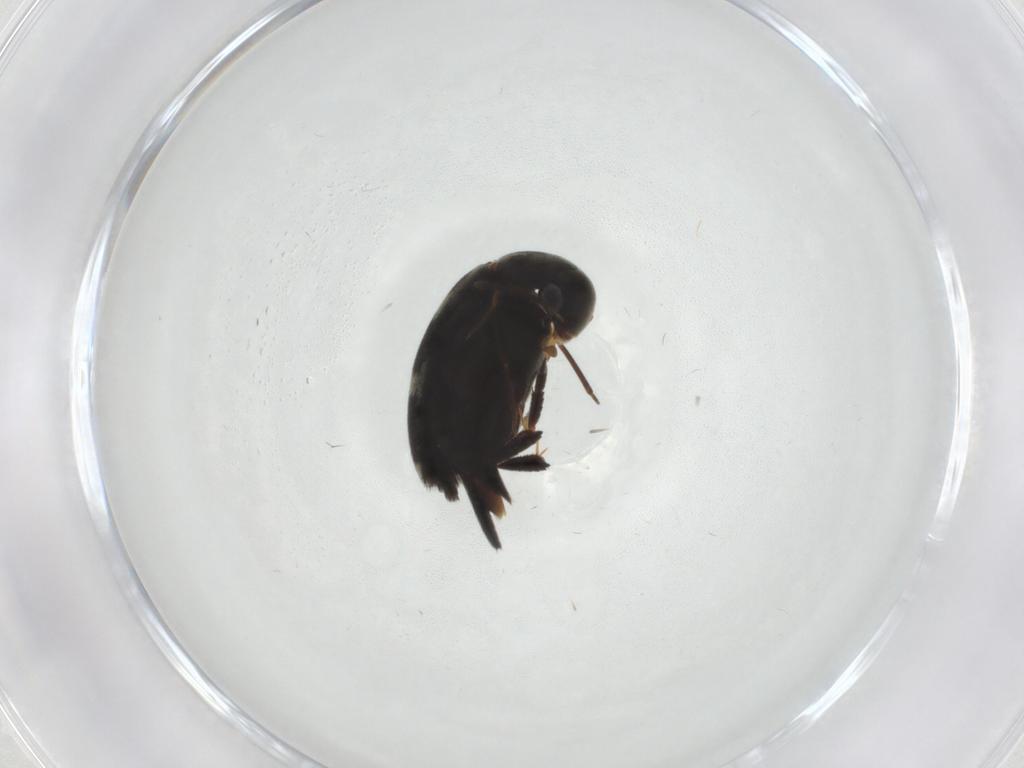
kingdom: Animalia
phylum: Arthropoda
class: Insecta
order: Coleoptera
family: Mordellidae
